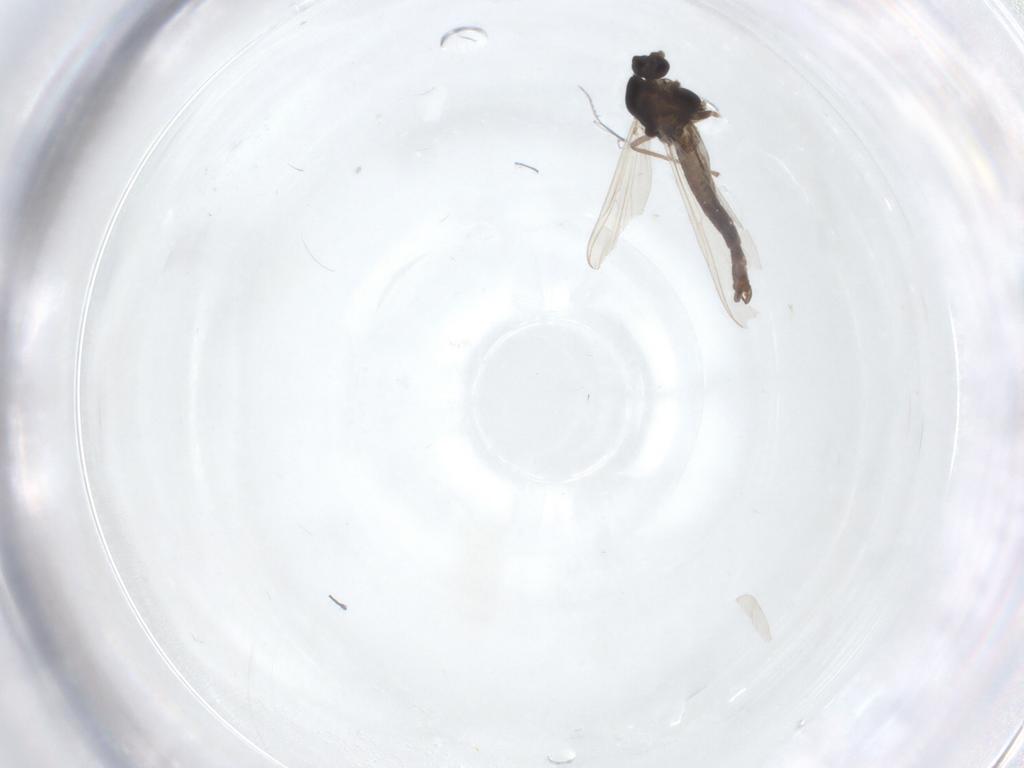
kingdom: Animalia
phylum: Arthropoda
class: Insecta
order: Diptera
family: Chironomidae
